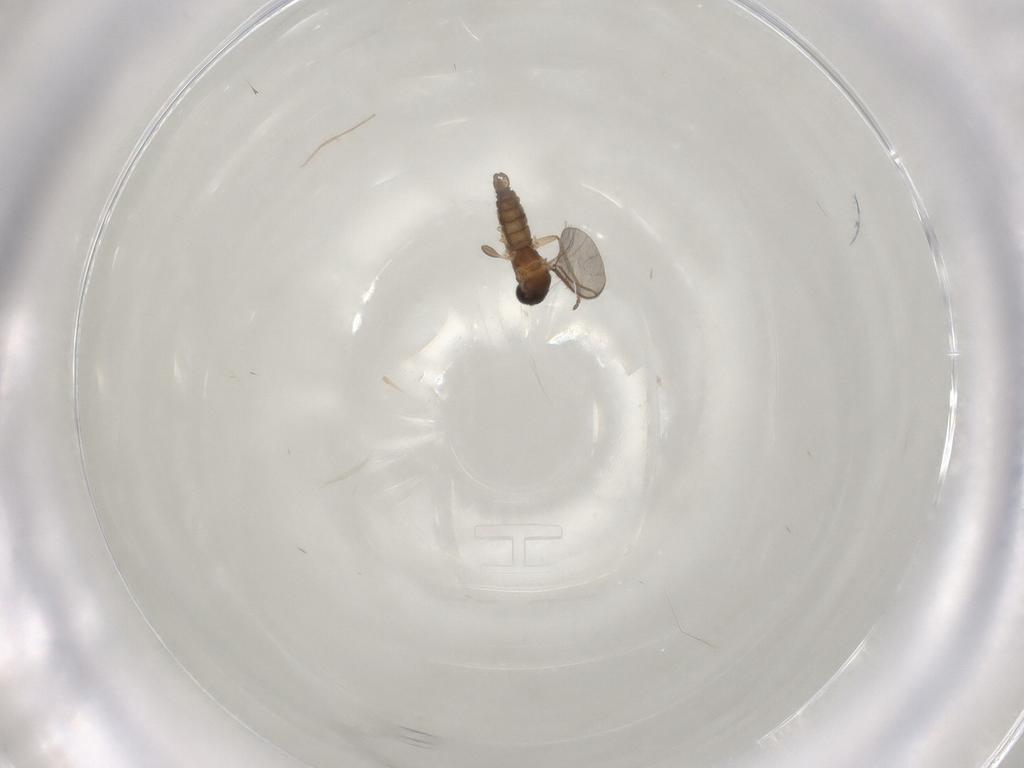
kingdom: Animalia
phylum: Arthropoda
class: Insecta
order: Diptera
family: Sciaridae
